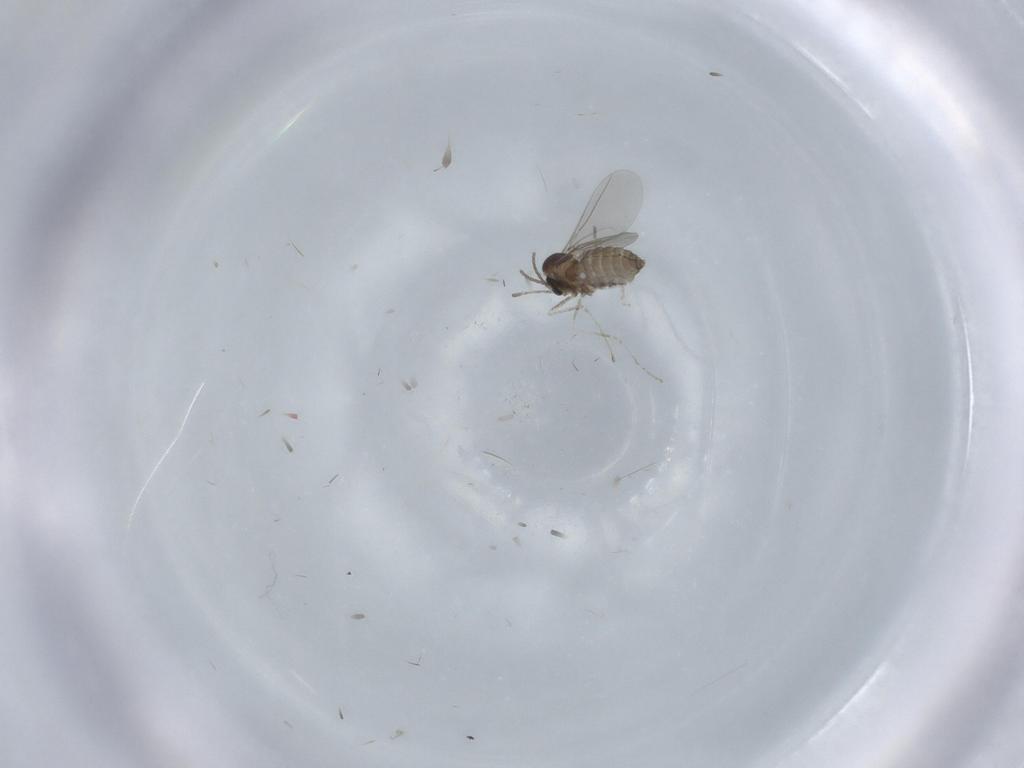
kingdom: Animalia
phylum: Arthropoda
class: Insecta
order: Diptera
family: Cecidomyiidae
